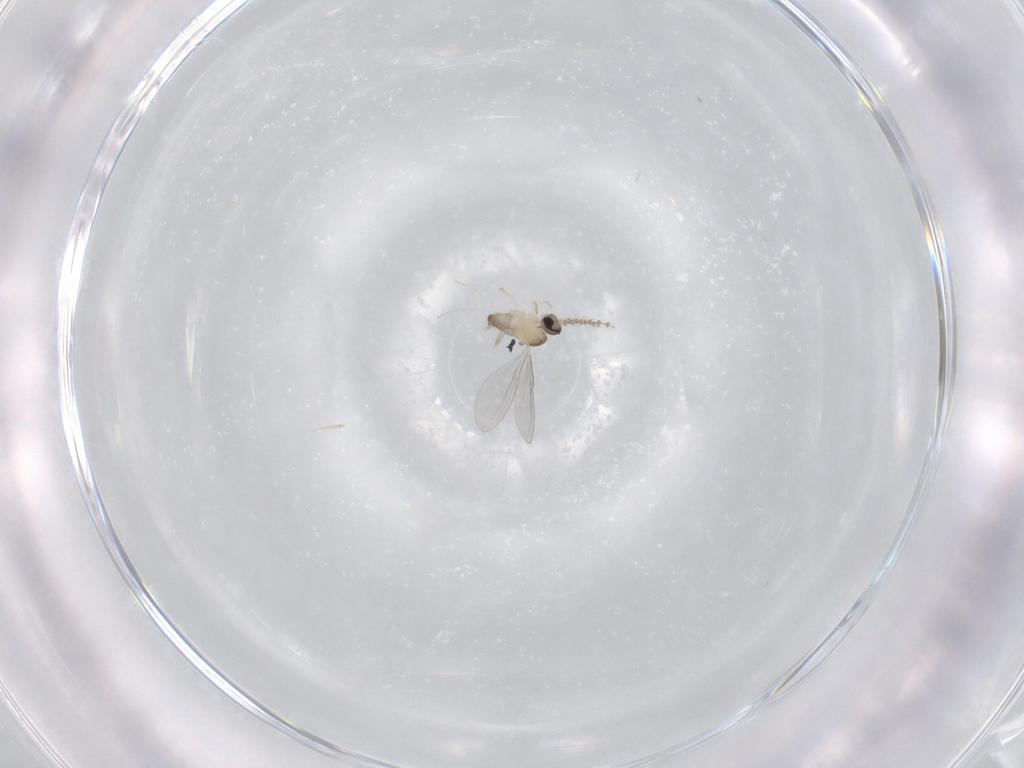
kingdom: Animalia
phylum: Arthropoda
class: Insecta
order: Diptera
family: Cecidomyiidae
